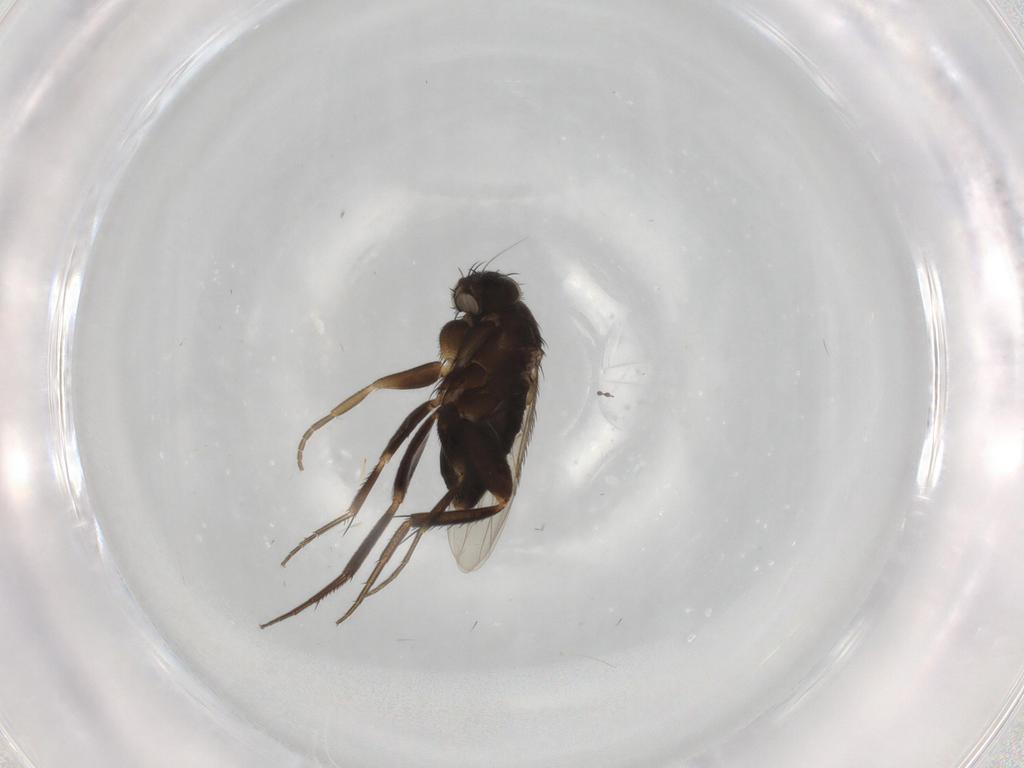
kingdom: Animalia
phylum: Arthropoda
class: Insecta
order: Diptera
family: Phoridae
